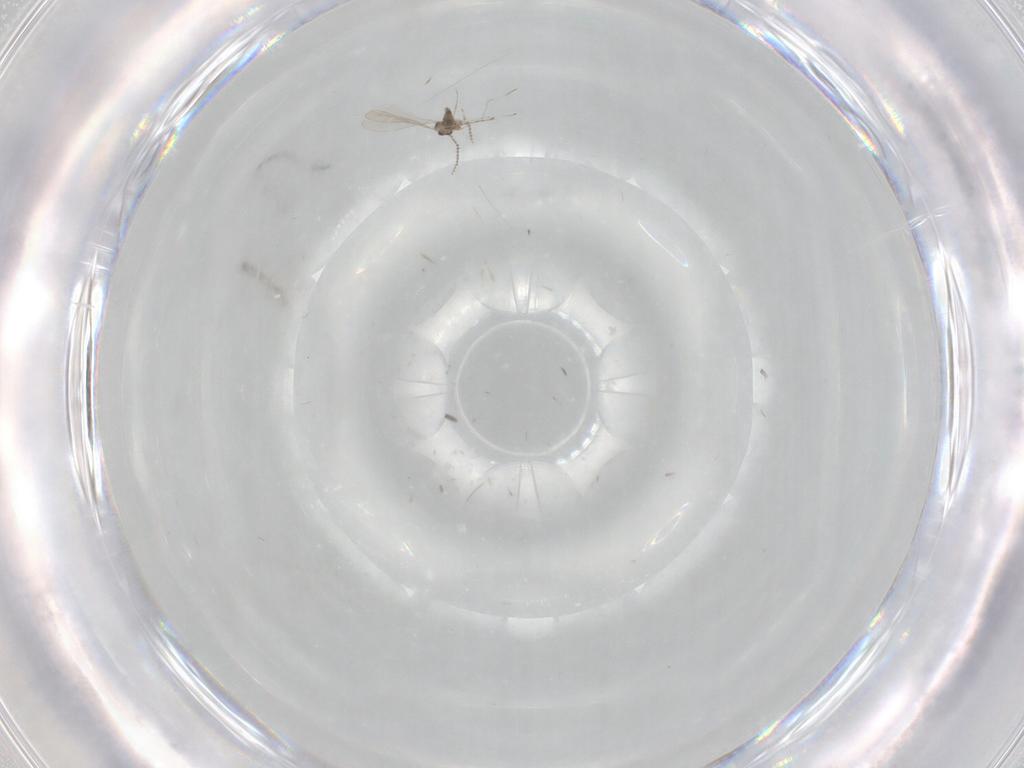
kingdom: Animalia
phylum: Arthropoda
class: Insecta
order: Diptera
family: Cecidomyiidae
